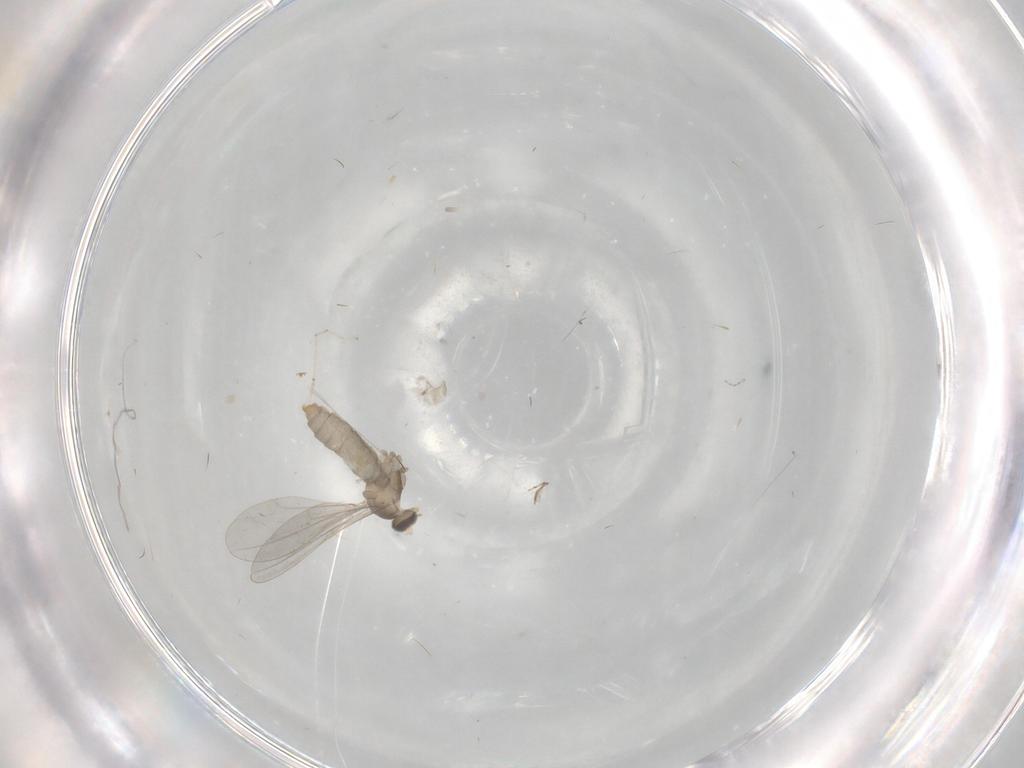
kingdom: Animalia
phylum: Arthropoda
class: Insecta
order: Diptera
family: Cecidomyiidae
